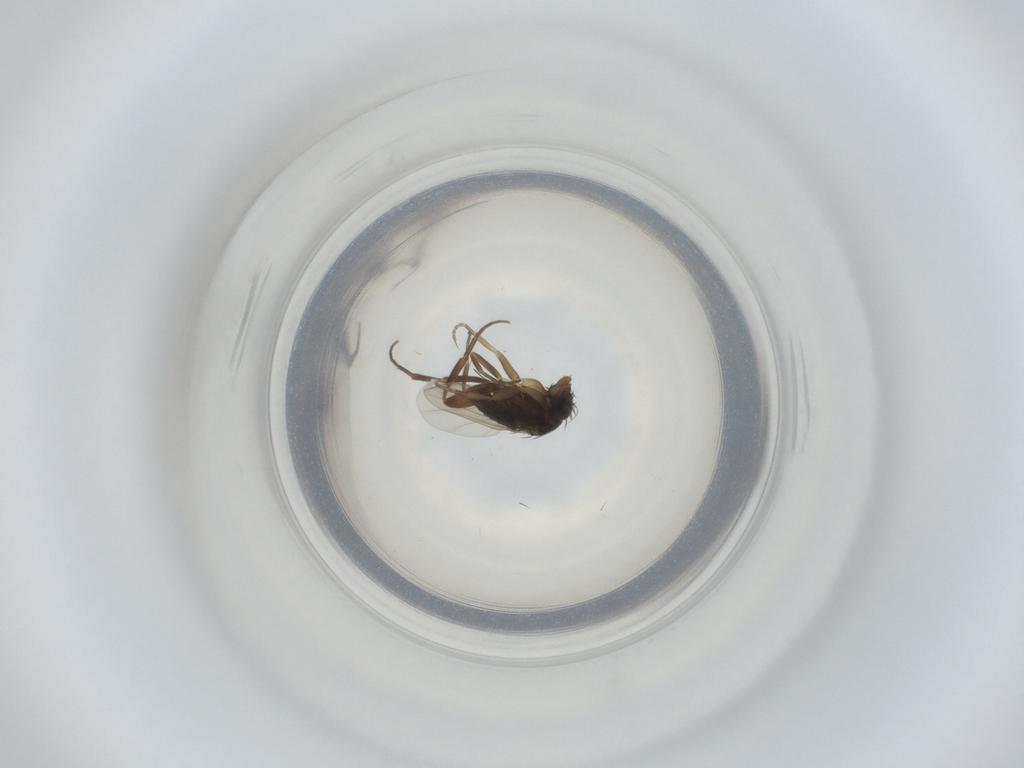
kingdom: Animalia
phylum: Arthropoda
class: Insecta
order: Diptera
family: Phoridae
